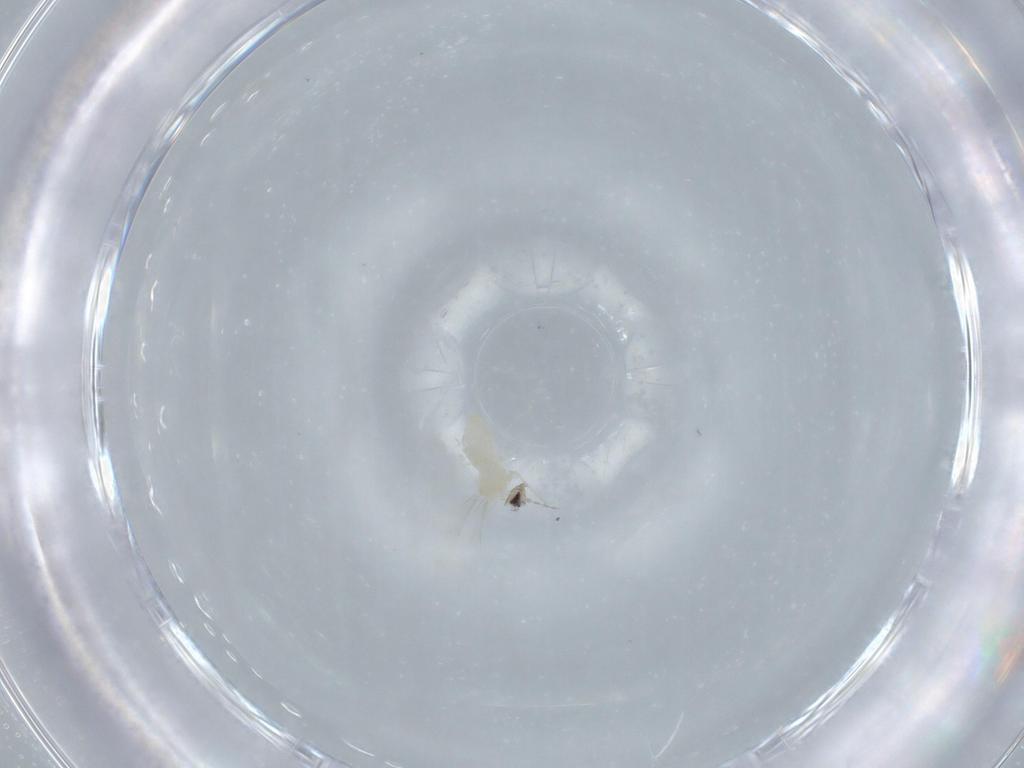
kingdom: Animalia
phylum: Arthropoda
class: Insecta
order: Diptera
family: Cecidomyiidae
